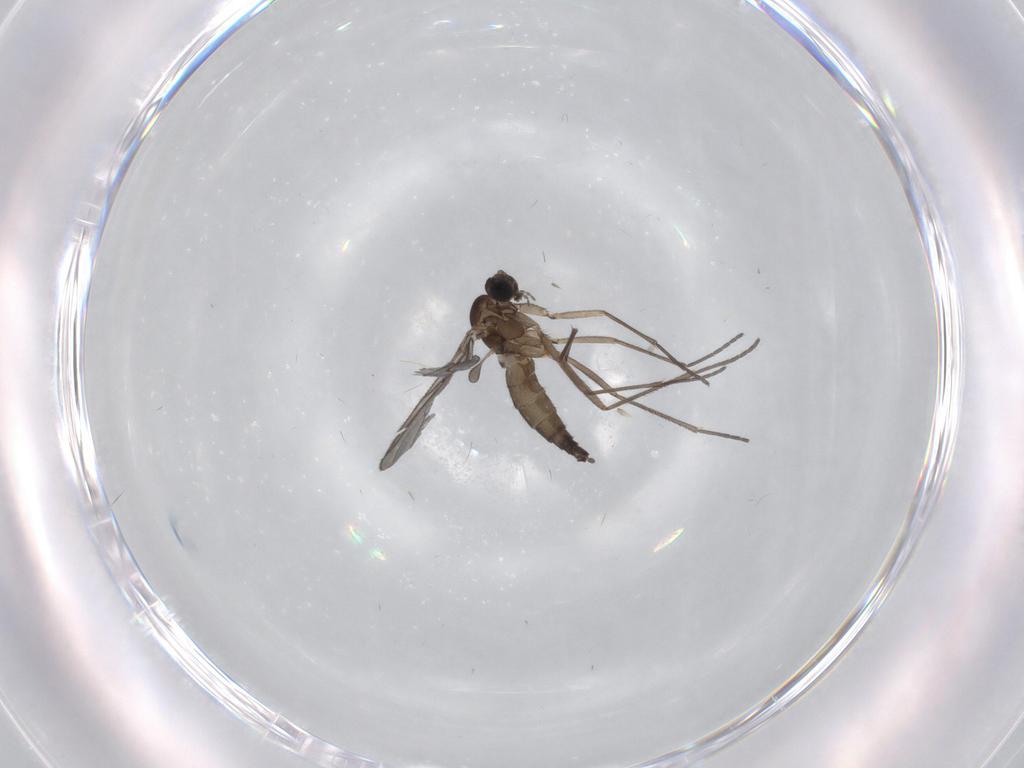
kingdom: Animalia
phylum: Arthropoda
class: Insecta
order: Diptera
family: Sciaridae
